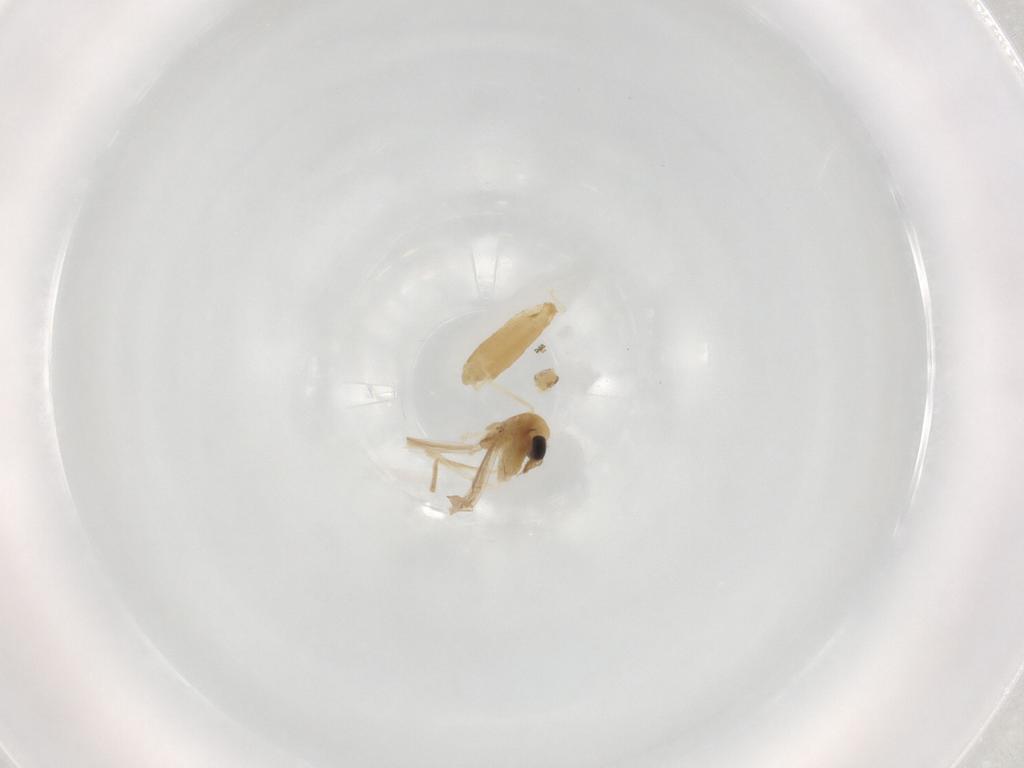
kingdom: Animalia
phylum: Arthropoda
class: Insecta
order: Diptera
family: Chironomidae
